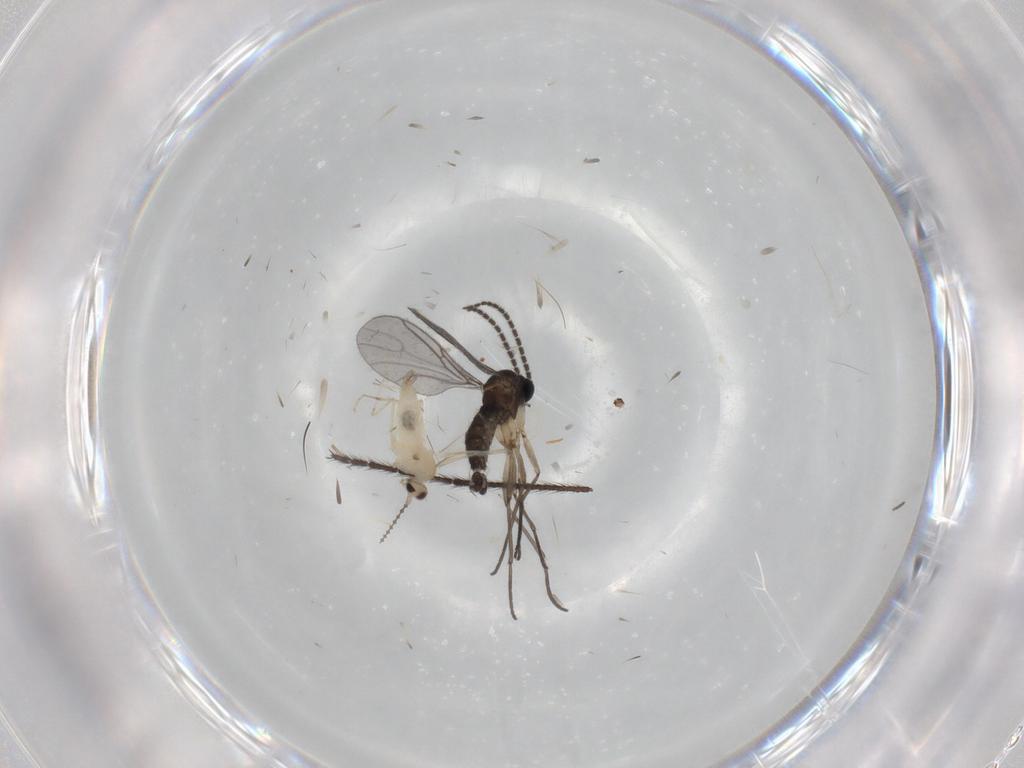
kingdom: Animalia
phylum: Arthropoda
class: Insecta
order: Diptera
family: Sciaridae
